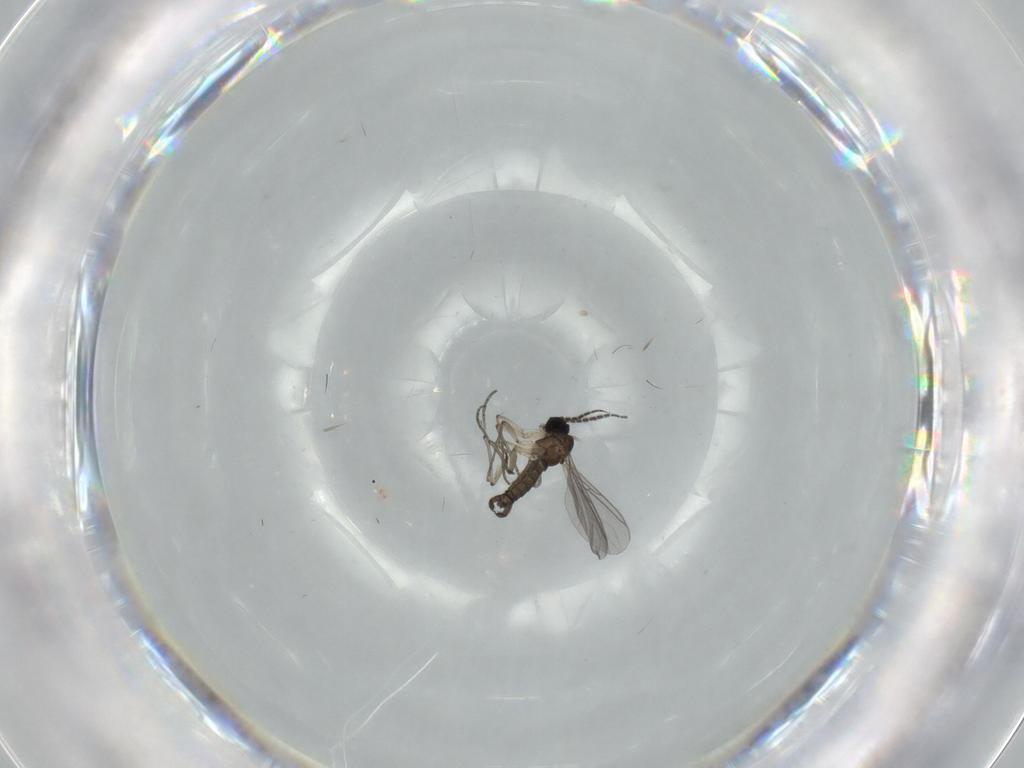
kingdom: Animalia
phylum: Arthropoda
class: Insecta
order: Diptera
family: Sciaridae
